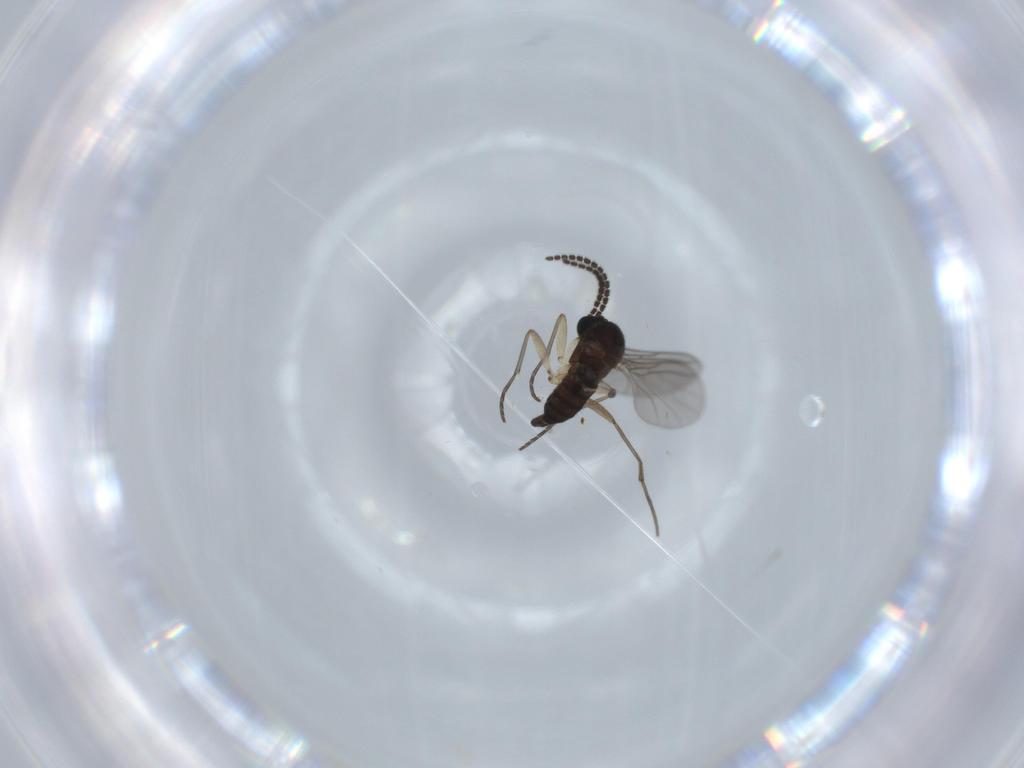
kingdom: Animalia
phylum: Arthropoda
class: Insecta
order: Diptera
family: Sciaridae
